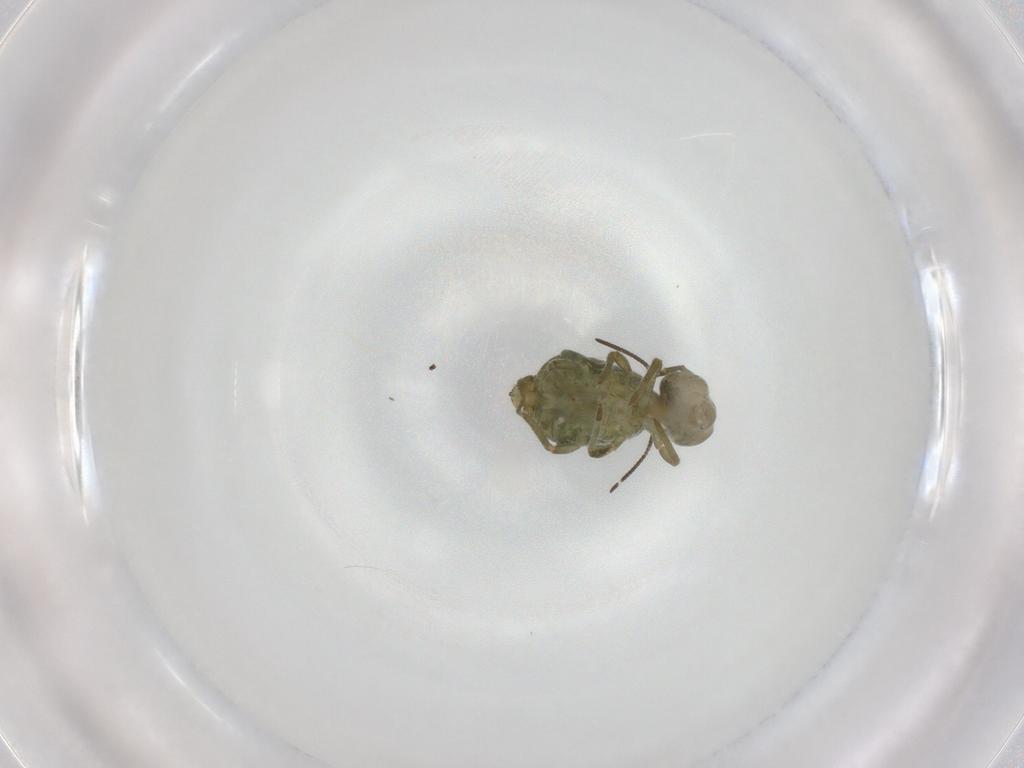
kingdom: Animalia
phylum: Arthropoda
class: Collembola
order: Symphypleona
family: Sminthuridae
